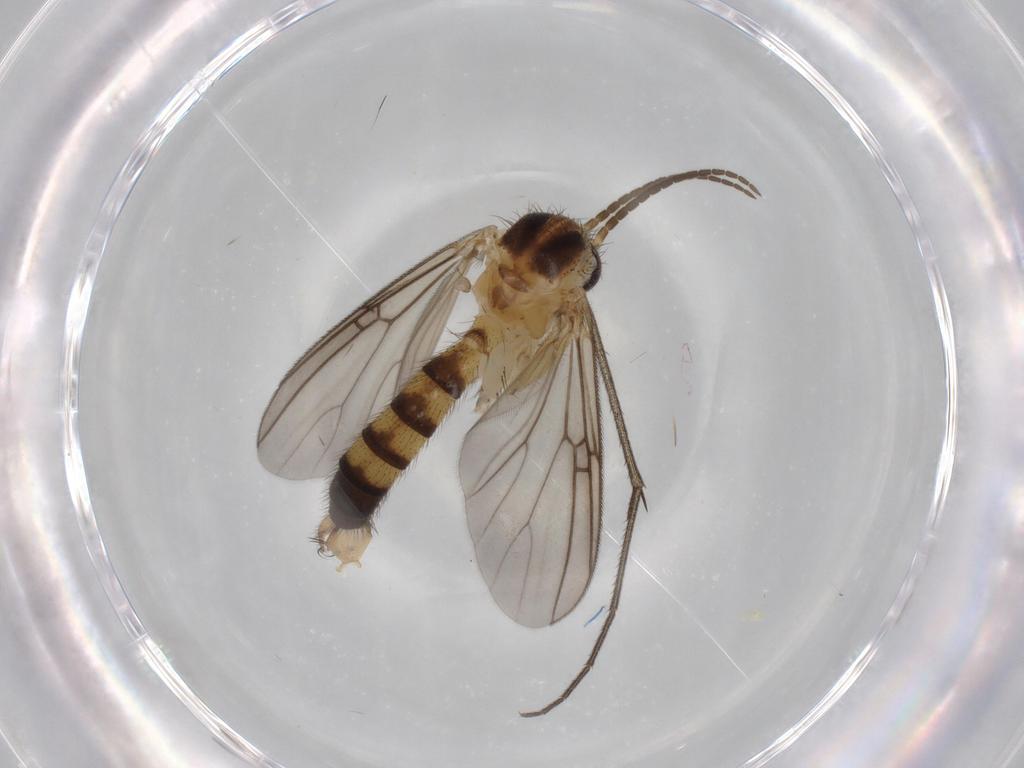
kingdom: Animalia
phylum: Arthropoda
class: Insecta
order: Diptera
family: Mycetophilidae
